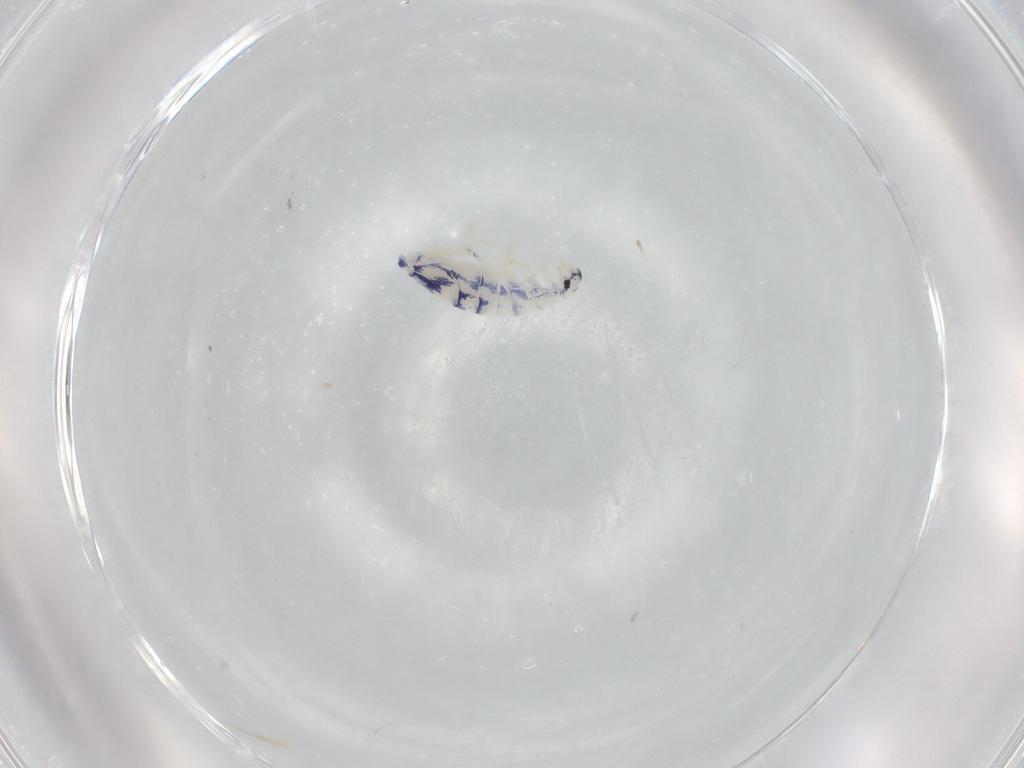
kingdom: Animalia
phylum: Arthropoda
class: Collembola
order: Entomobryomorpha
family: Entomobryidae
